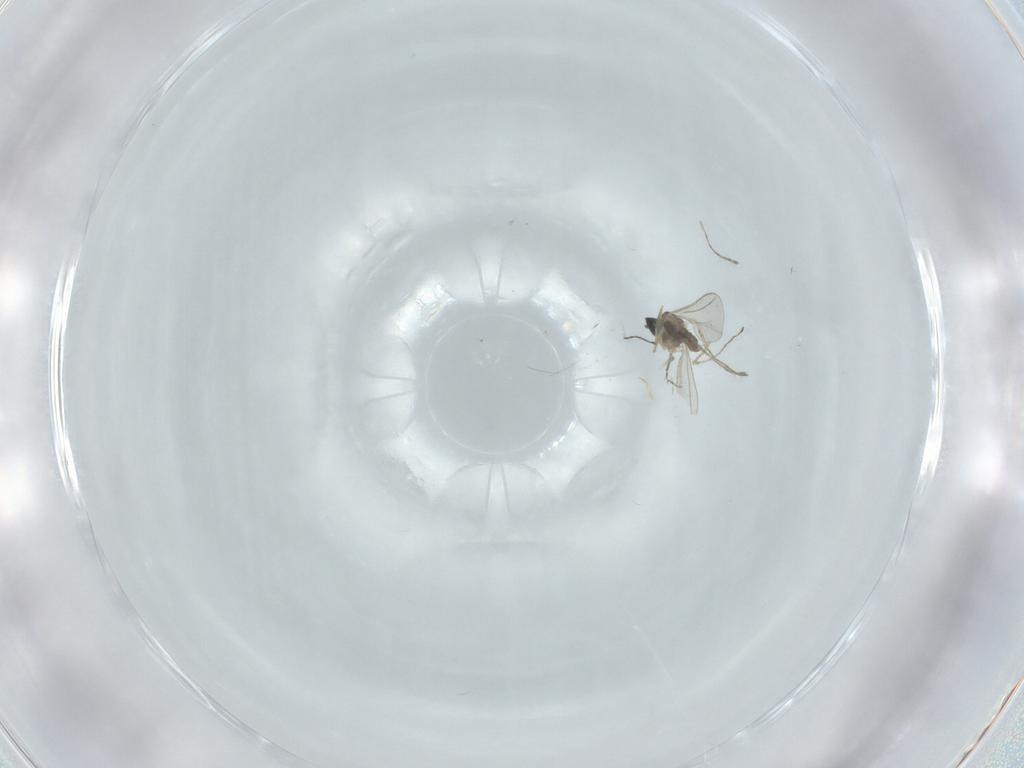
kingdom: Animalia
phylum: Arthropoda
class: Insecta
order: Diptera
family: Cecidomyiidae
